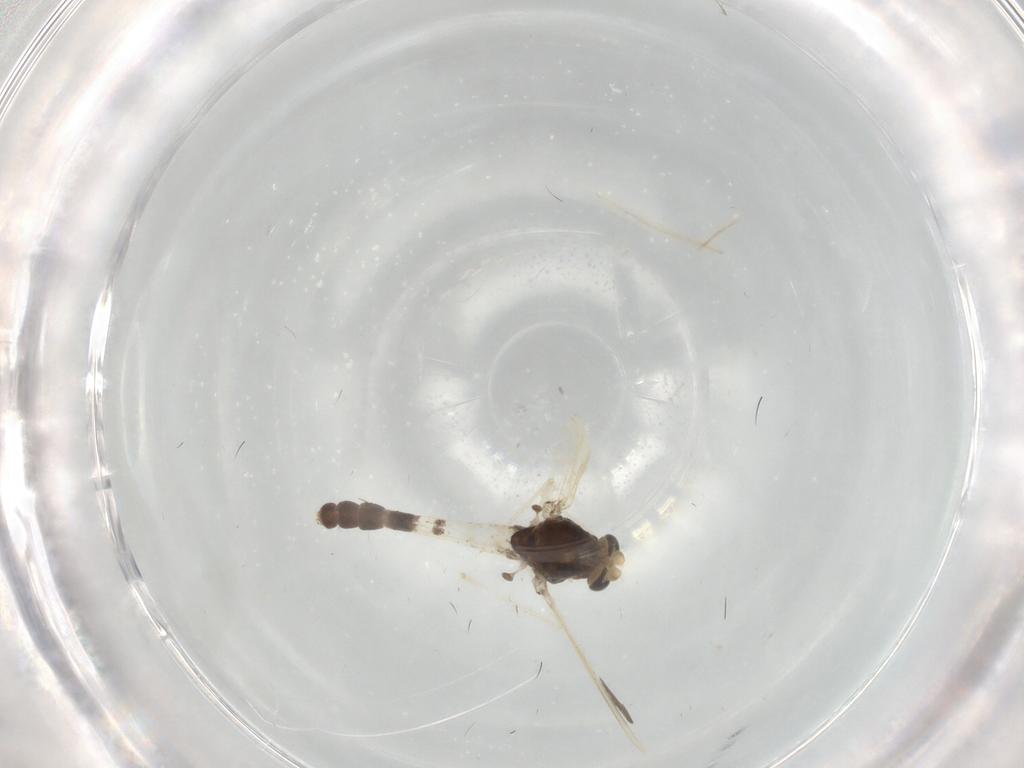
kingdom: Animalia
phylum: Arthropoda
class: Insecta
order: Diptera
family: Dolichopodidae
